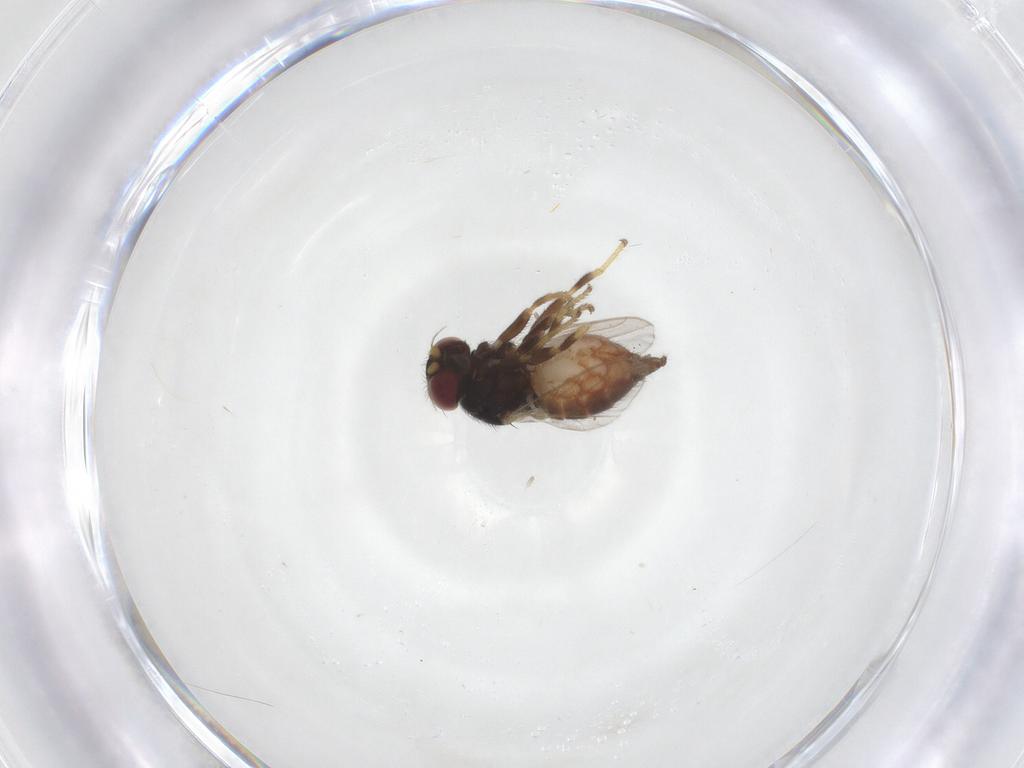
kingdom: Animalia
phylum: Arthropoda
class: Insecta
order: Diptera
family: Chloropidae
